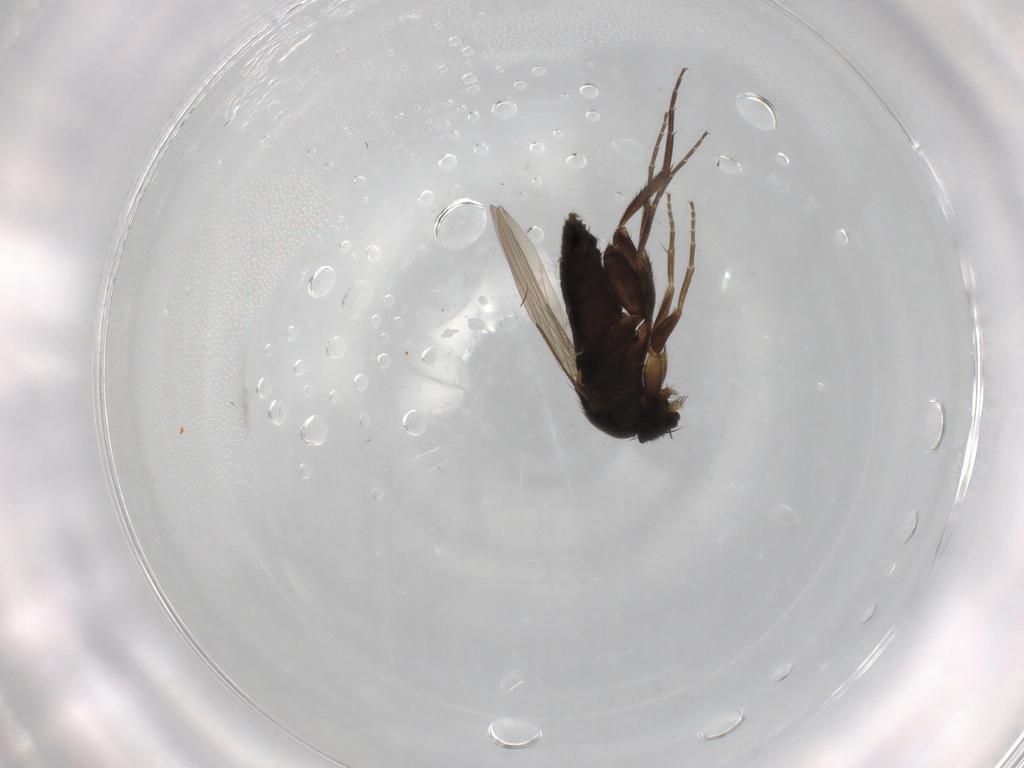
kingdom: Animalia
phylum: Arthropoda
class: Insecta
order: Diptera
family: Phoridae
